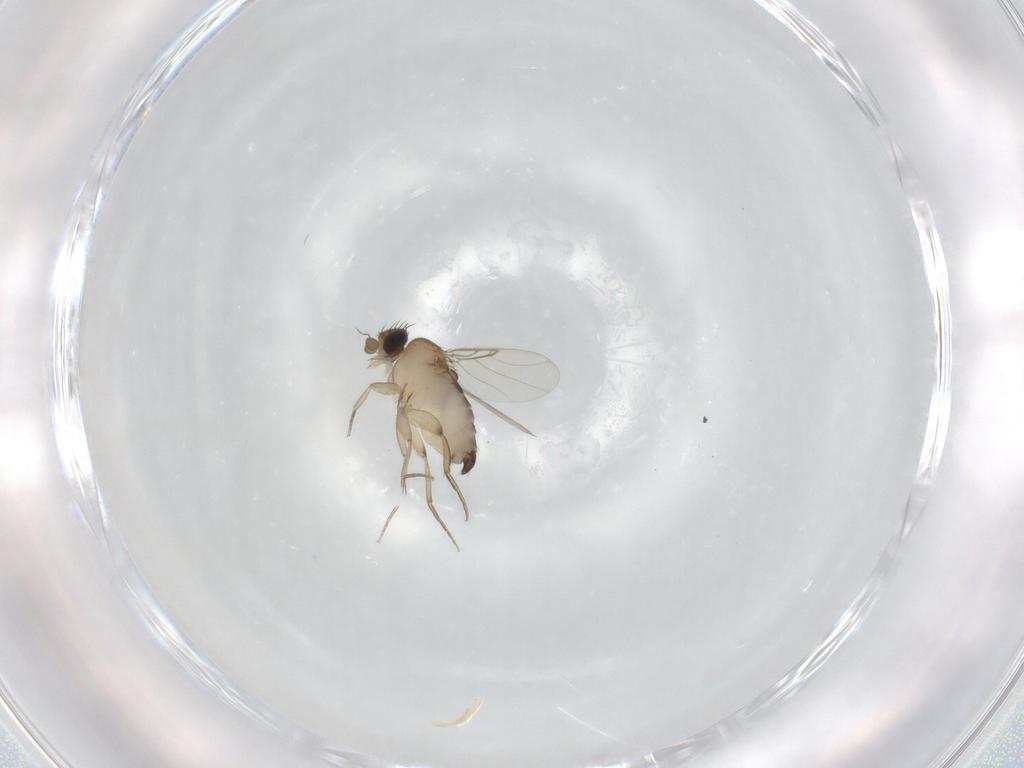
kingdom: Animalia
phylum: Arthropoda
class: Insecta
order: Diptera
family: Phoridae
